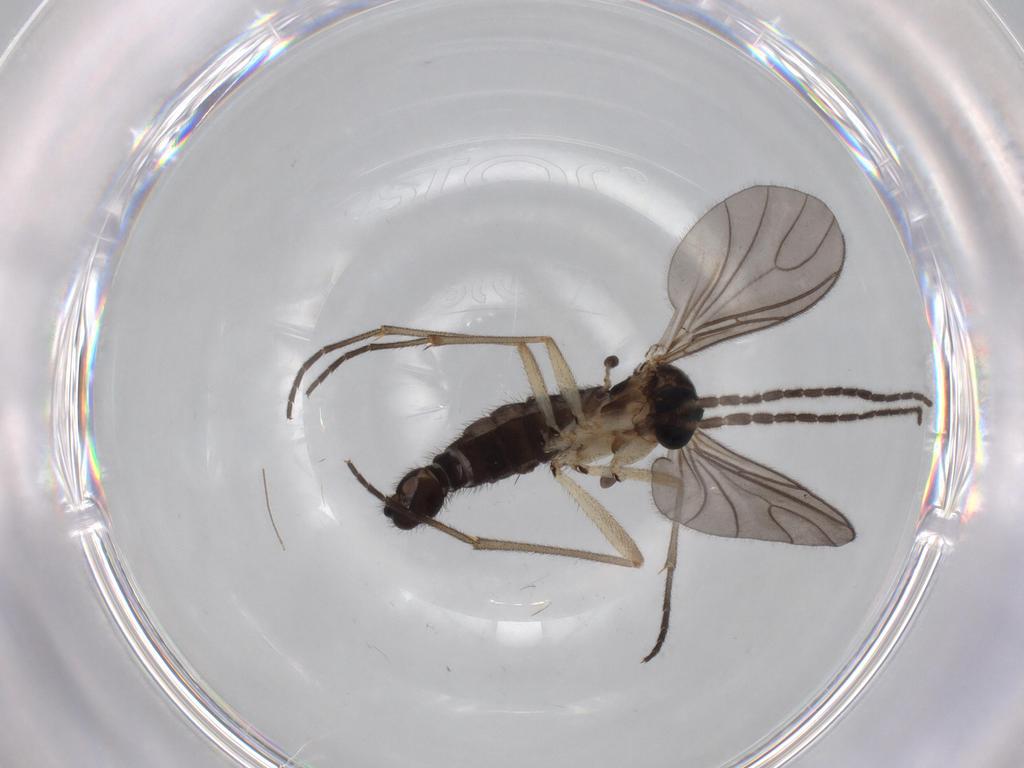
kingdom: Animalia
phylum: Arthropoda
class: Insecta
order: Diptera
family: Sciaridae
